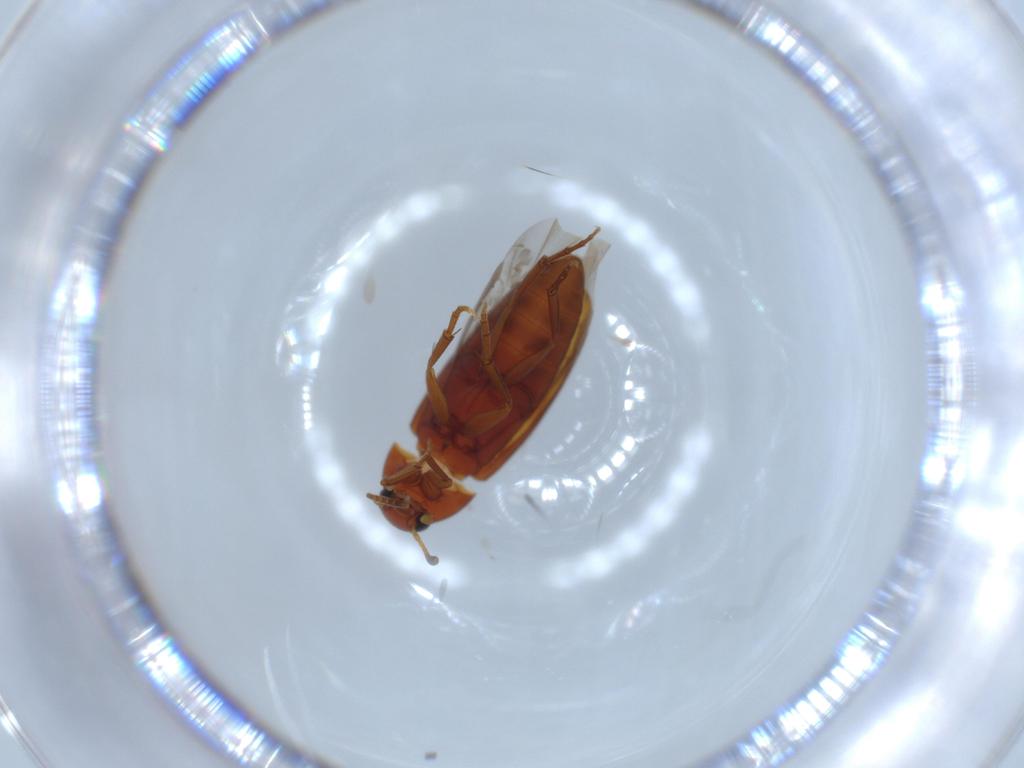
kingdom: Animalia
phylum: Arthropoda
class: Insecta
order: Coleoptera
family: Scraptiidae
